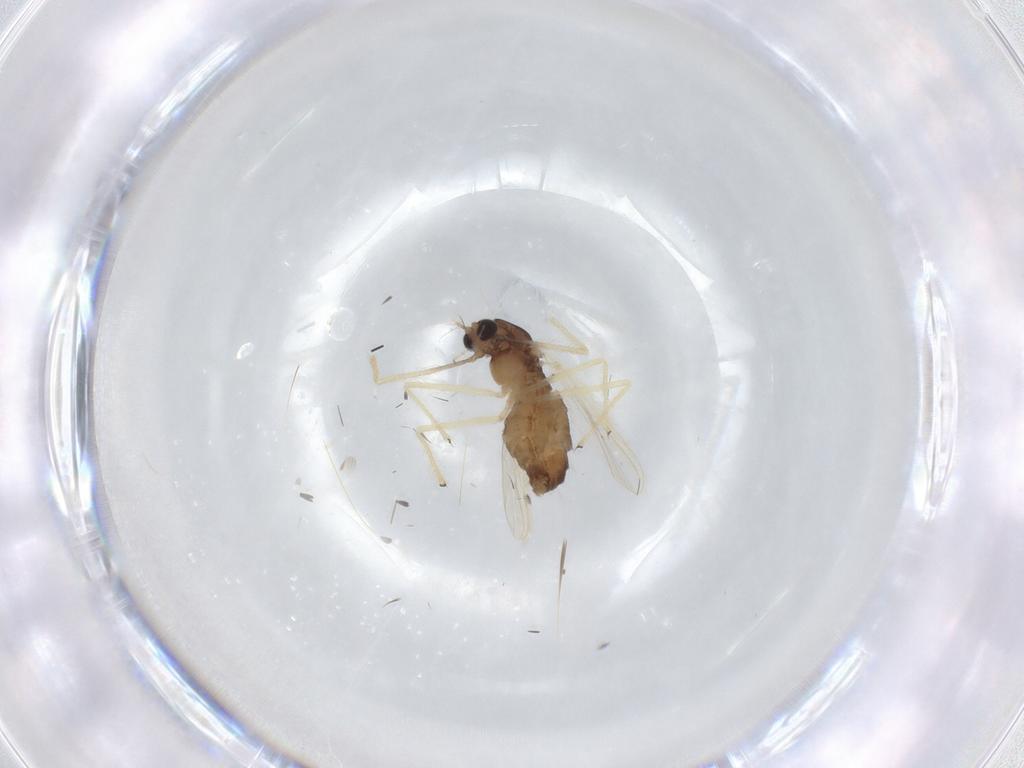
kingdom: Animalia
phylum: Arthropoda
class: Insecta
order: Diptera
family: Chironomidae
